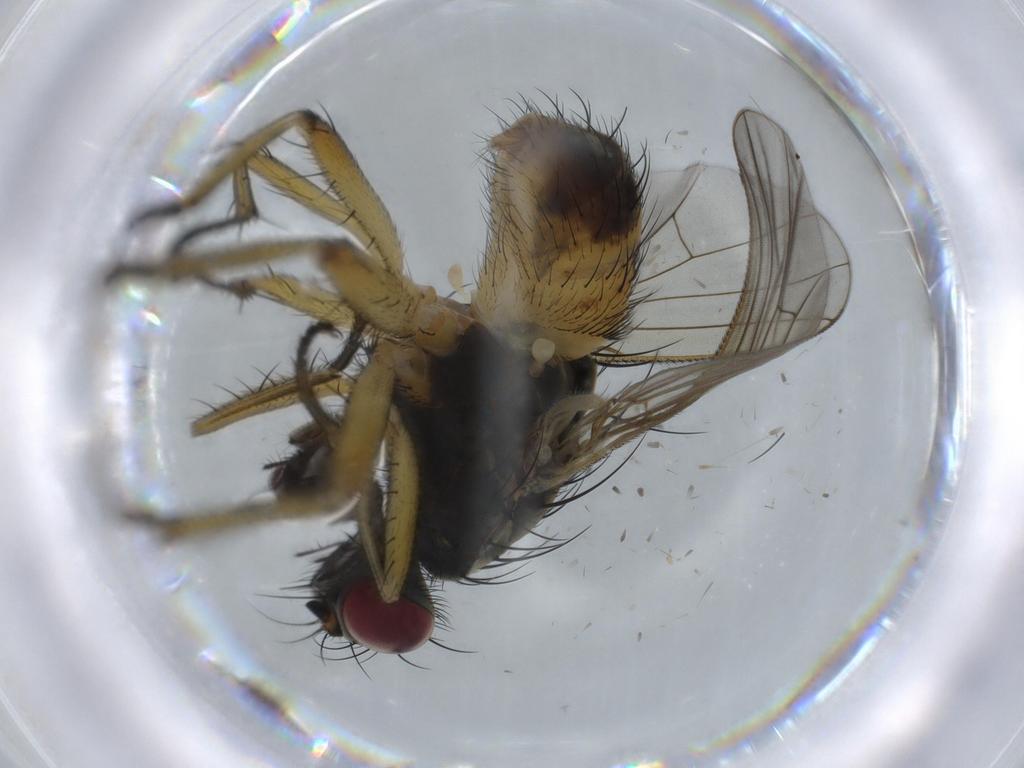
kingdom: Animalia
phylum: Arthropoda
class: Insecta
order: Diptera
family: Muscidae
